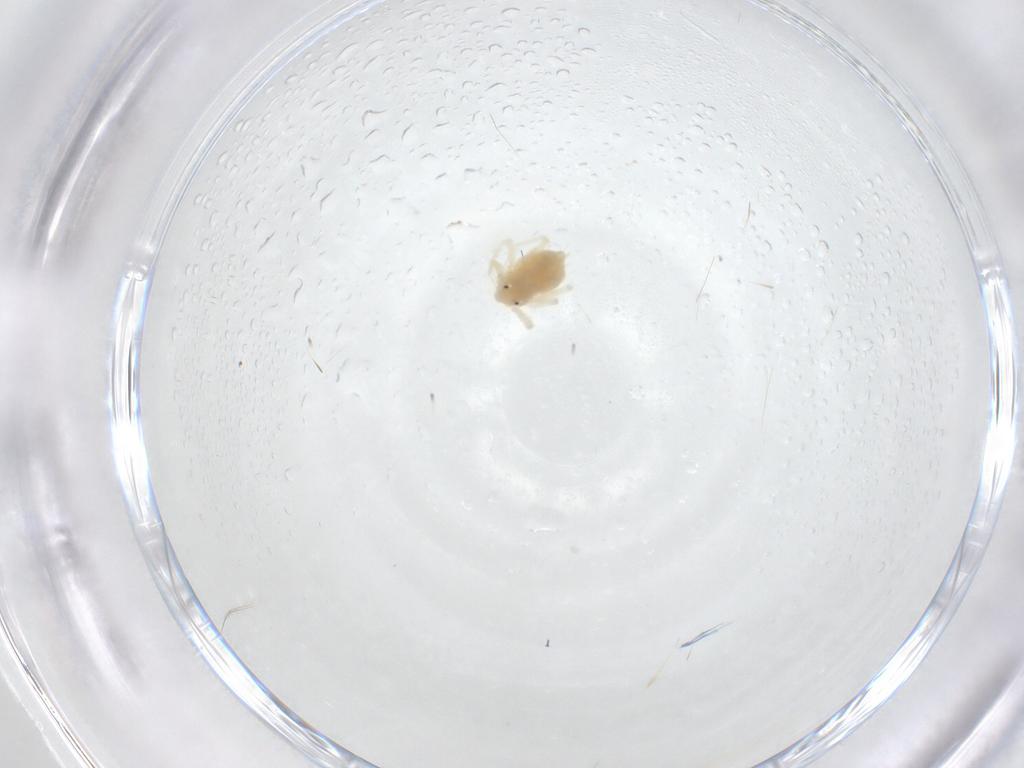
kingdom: Animalia
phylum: Arthropoda
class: Arachnida
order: Trombidiformes
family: Anystidae
